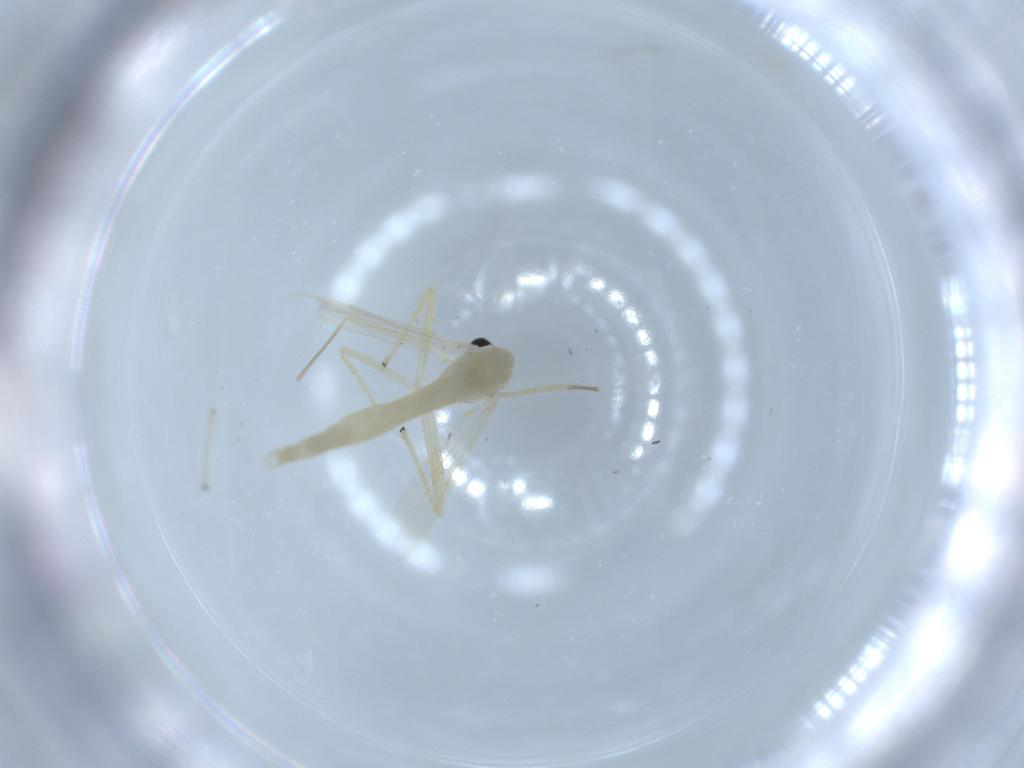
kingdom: Animalia
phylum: Arthropoda
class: Insecta
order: Diptera
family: Chironomidae
